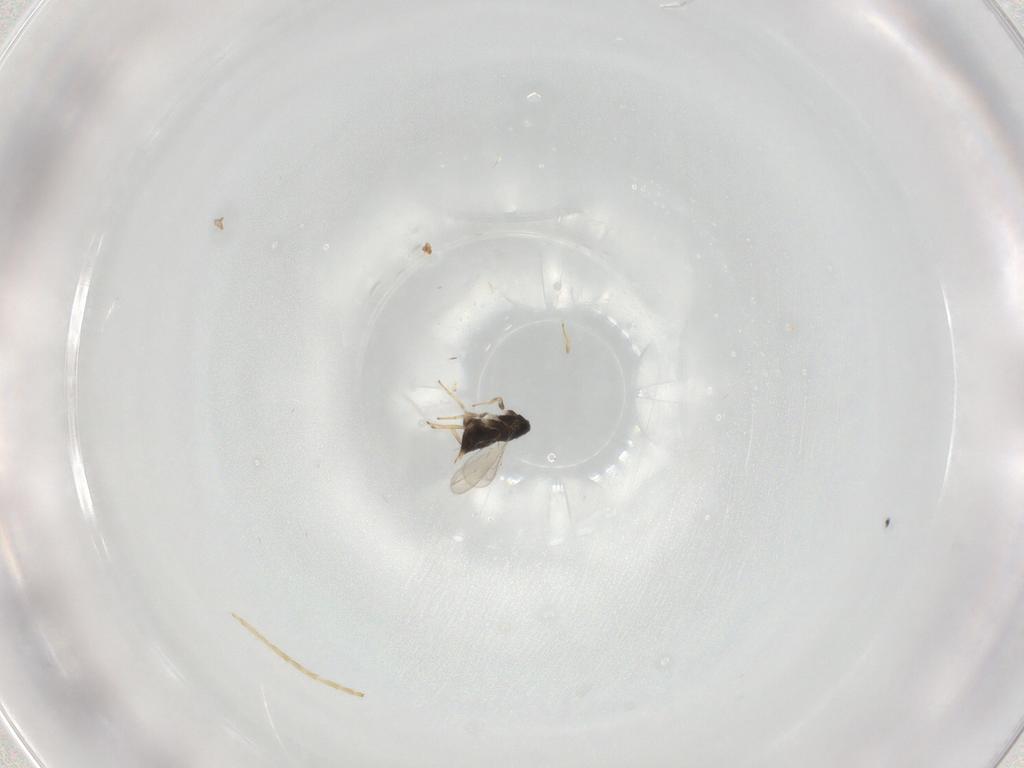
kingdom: Animalia
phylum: Arthropoda
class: Insecta
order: Hymenoptera
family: Aphelinidae
